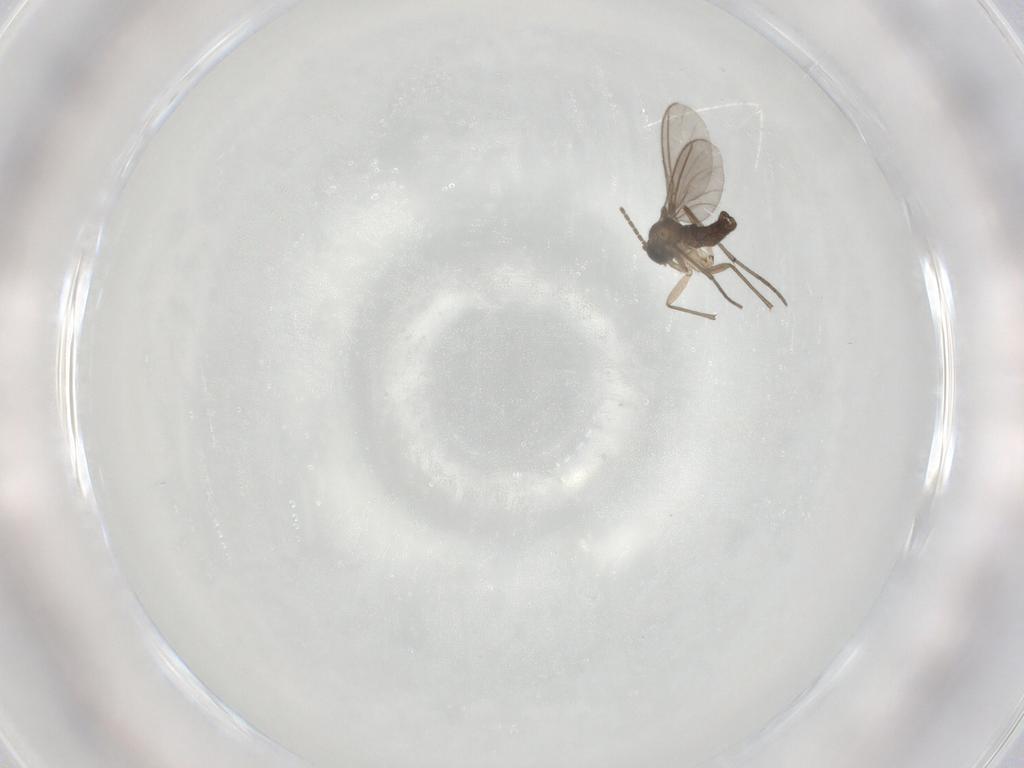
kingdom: Animalia
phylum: Arthropoda
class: Insecta
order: Diptera
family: Sciaridae
